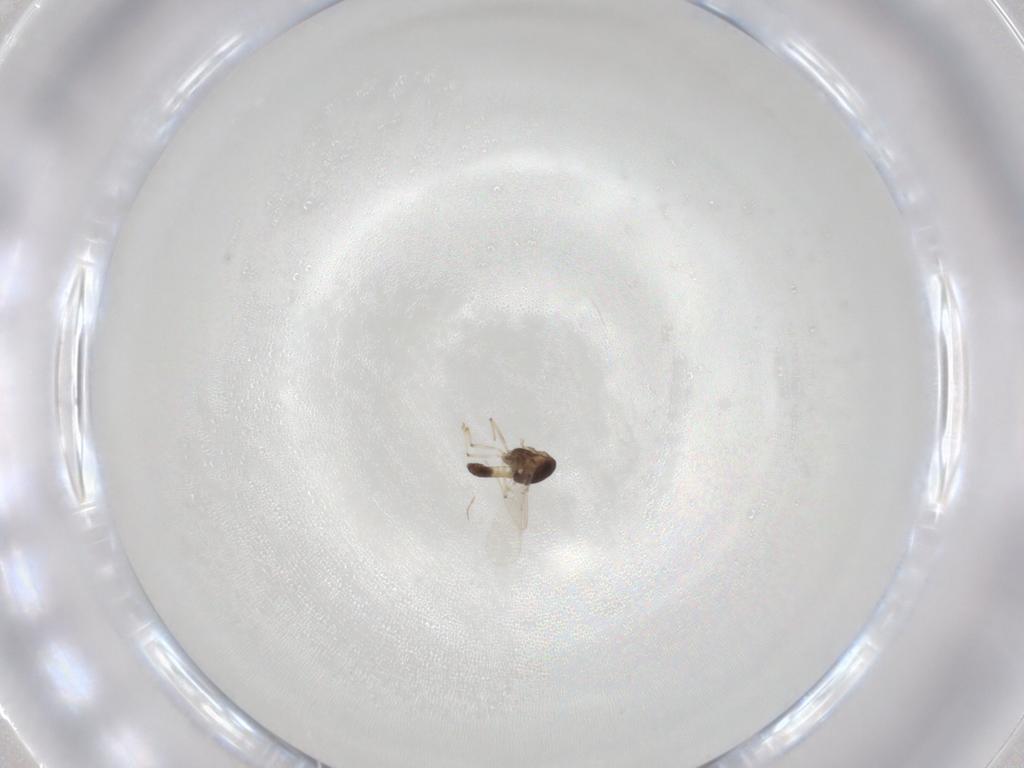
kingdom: Animalia
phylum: Arthropoda
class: Insecta
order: Diptera
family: Chironomidae
